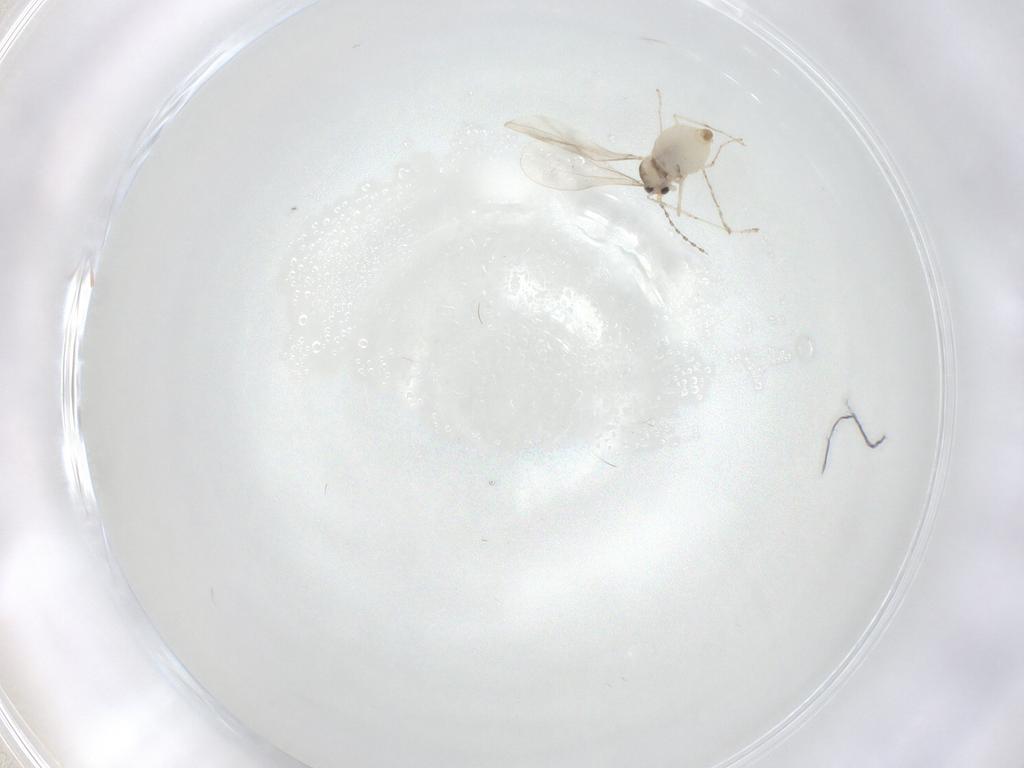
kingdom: Animalia
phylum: Arthropoda
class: Insecta
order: Diptera
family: Cecidomyiidae
